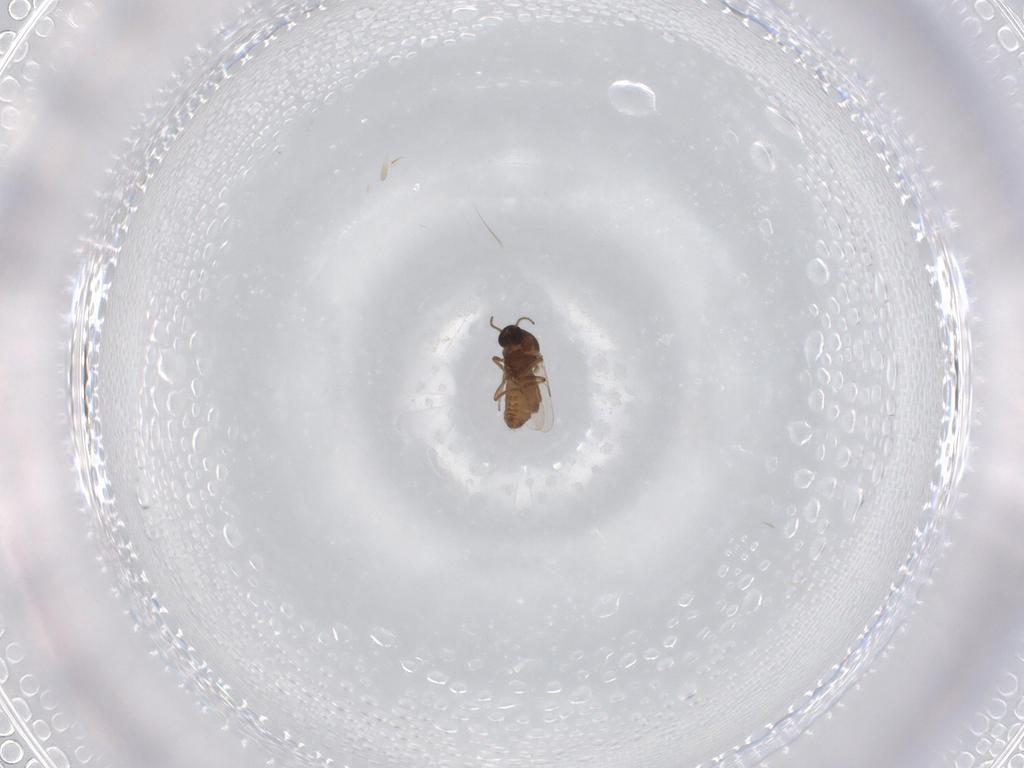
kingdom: Animalia
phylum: Arthropoda
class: Insecta
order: Diptera
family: Ceratopogonidae
